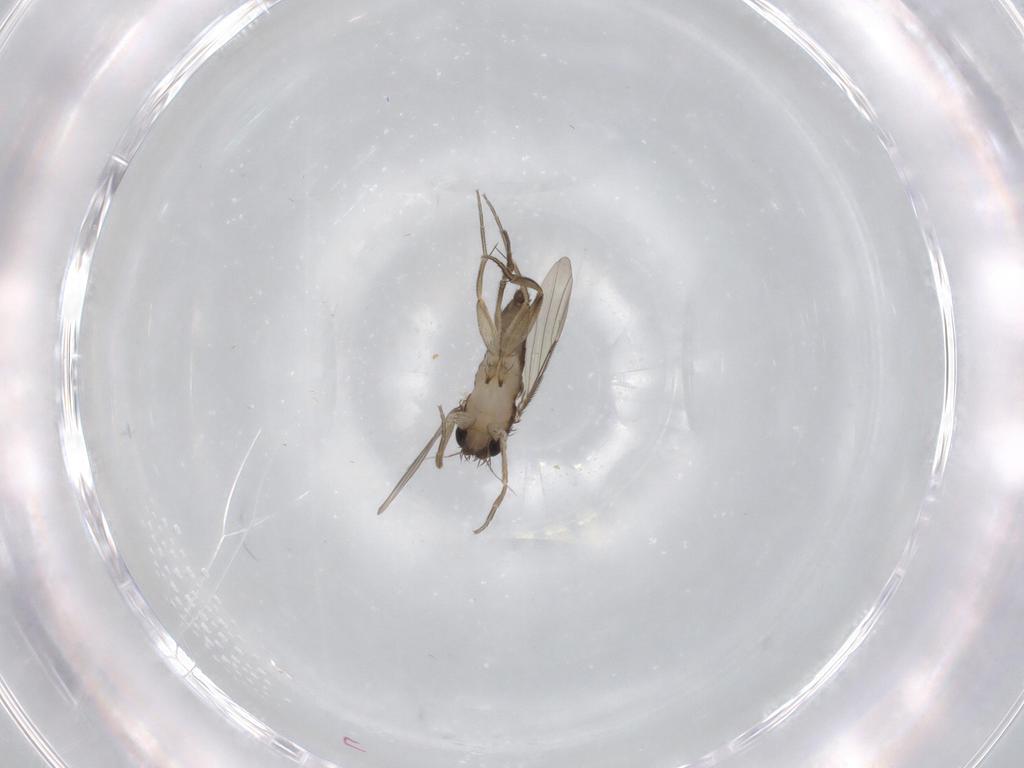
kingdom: Animalia
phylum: Arthropoda
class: Insecta
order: Diptera
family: Phoridae
